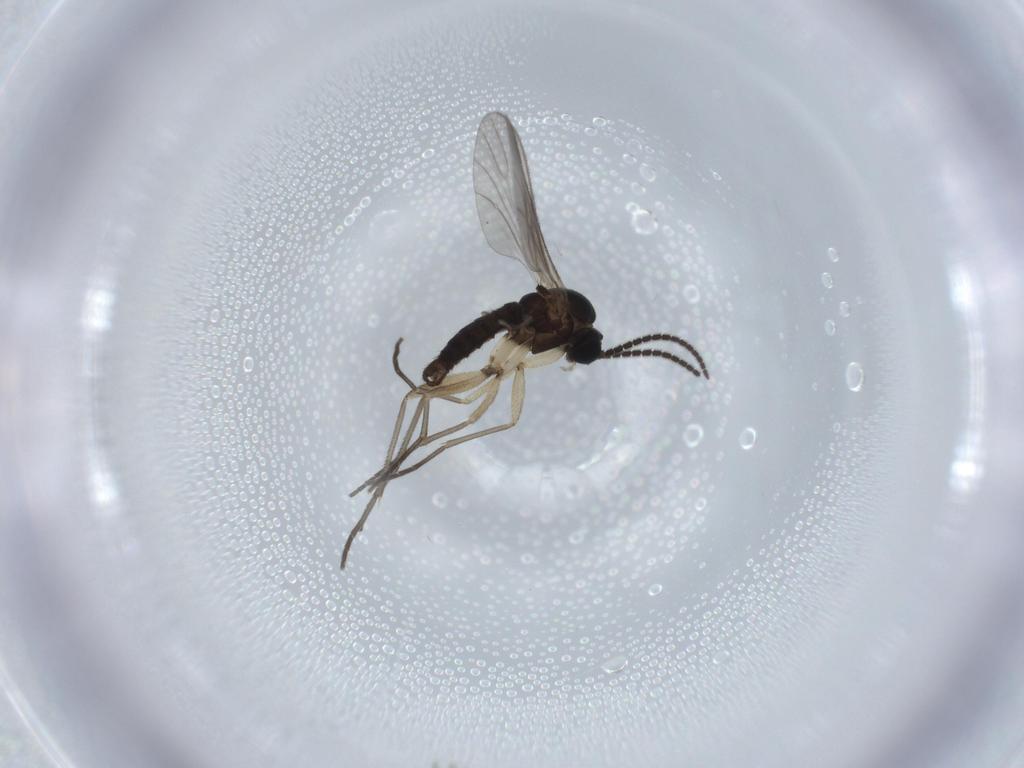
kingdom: Animalia
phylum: Arthropoda
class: Insecta
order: Diptera
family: Sciaridae
